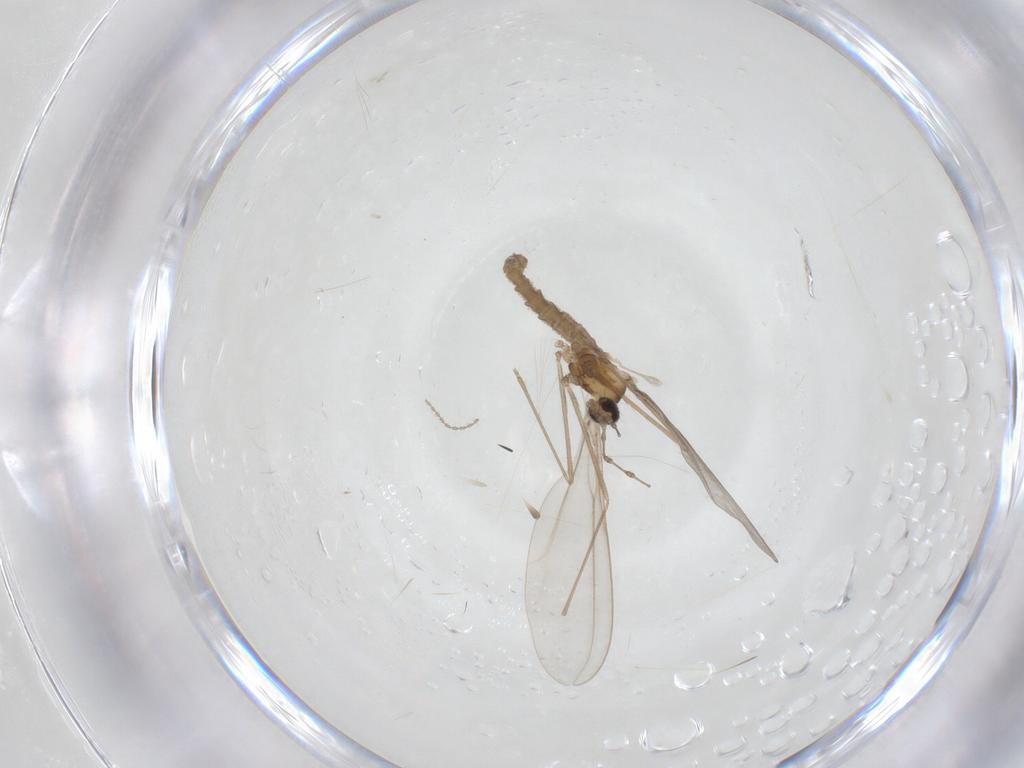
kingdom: Animalia
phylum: Arthropoda
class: Insecta
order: Diptera
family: Cecidomyiidae
